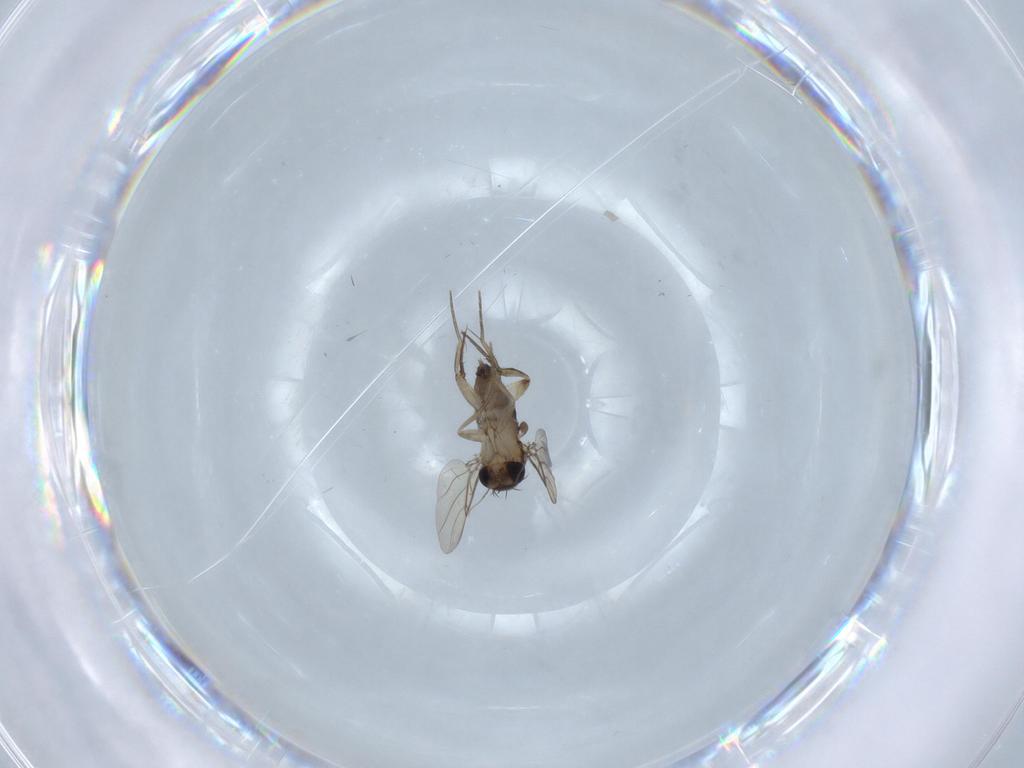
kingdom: Animalia
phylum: Arthropoda
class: Insecta
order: Diptera
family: Phoridae
